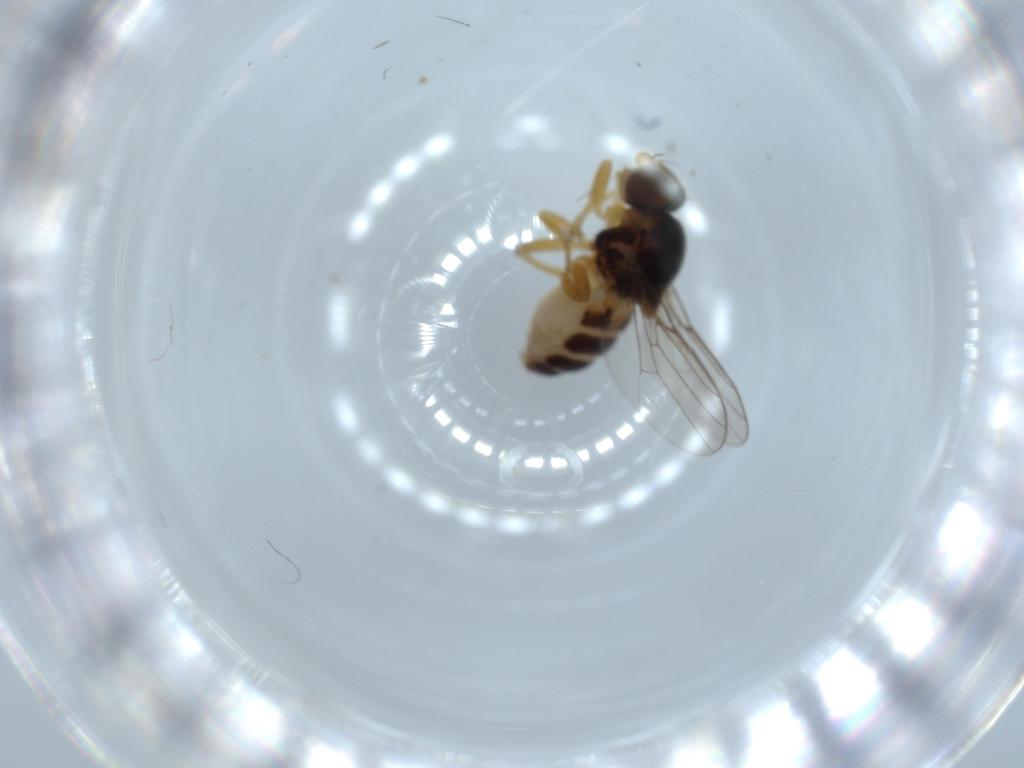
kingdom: Animalia
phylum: Arthropoda
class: Insecta
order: Diptera
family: Chloropidae
